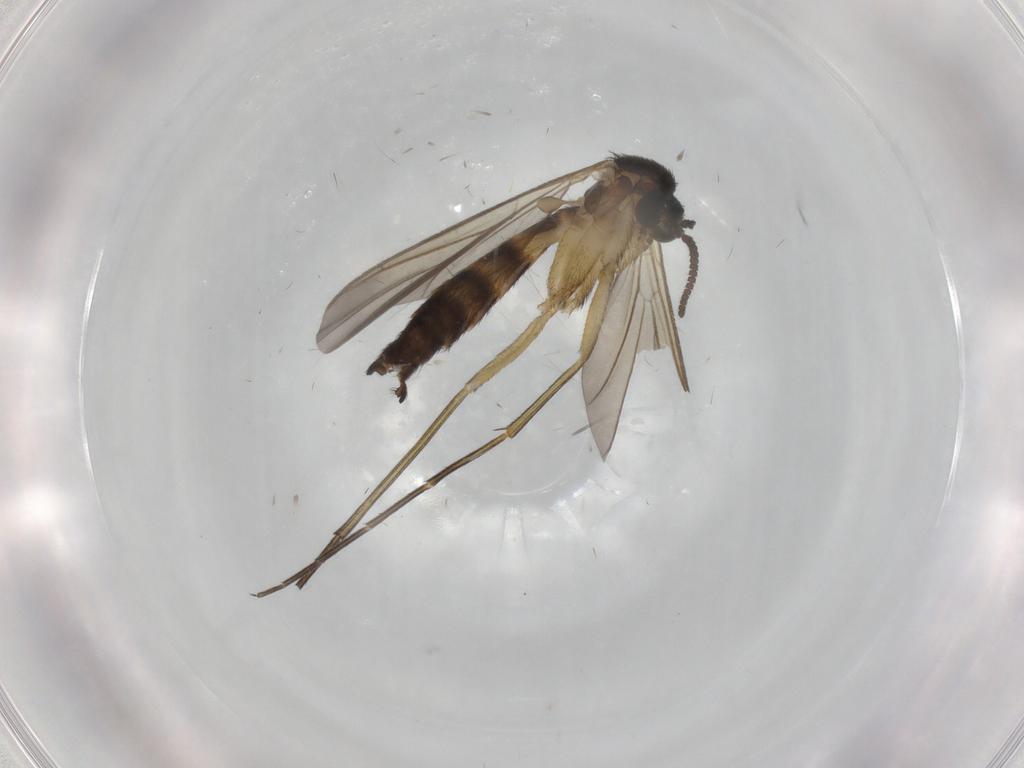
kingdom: Animalia
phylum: Arthropoda
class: Insecta
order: Diptera
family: Keroplatidae
